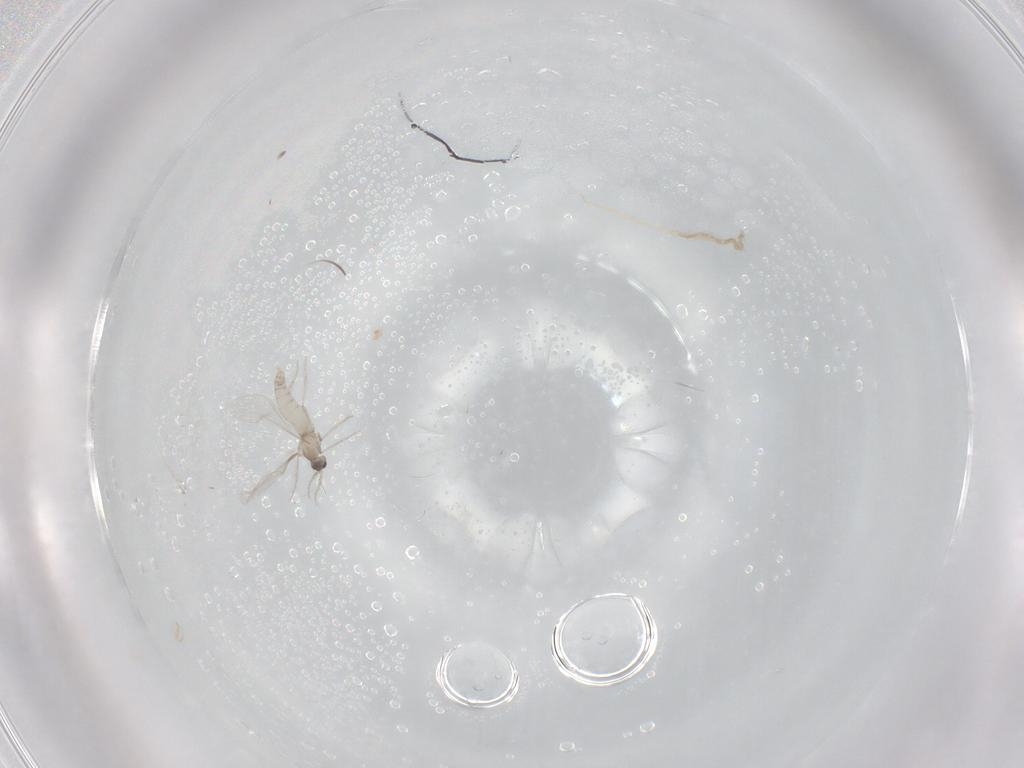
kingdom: Animalia
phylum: Arthropoda
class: Insecta
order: Diptera
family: Cecidomyiidae
